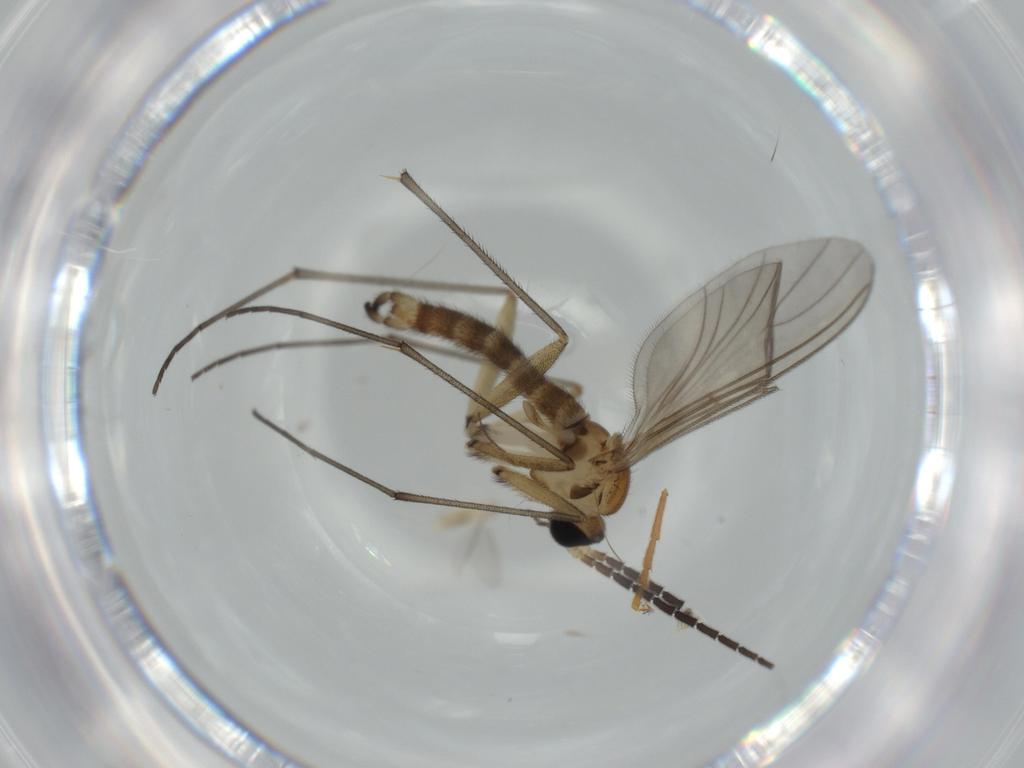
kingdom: Animalia
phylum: Arthropoda
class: Insecta
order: Diptera
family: Sciaridae
